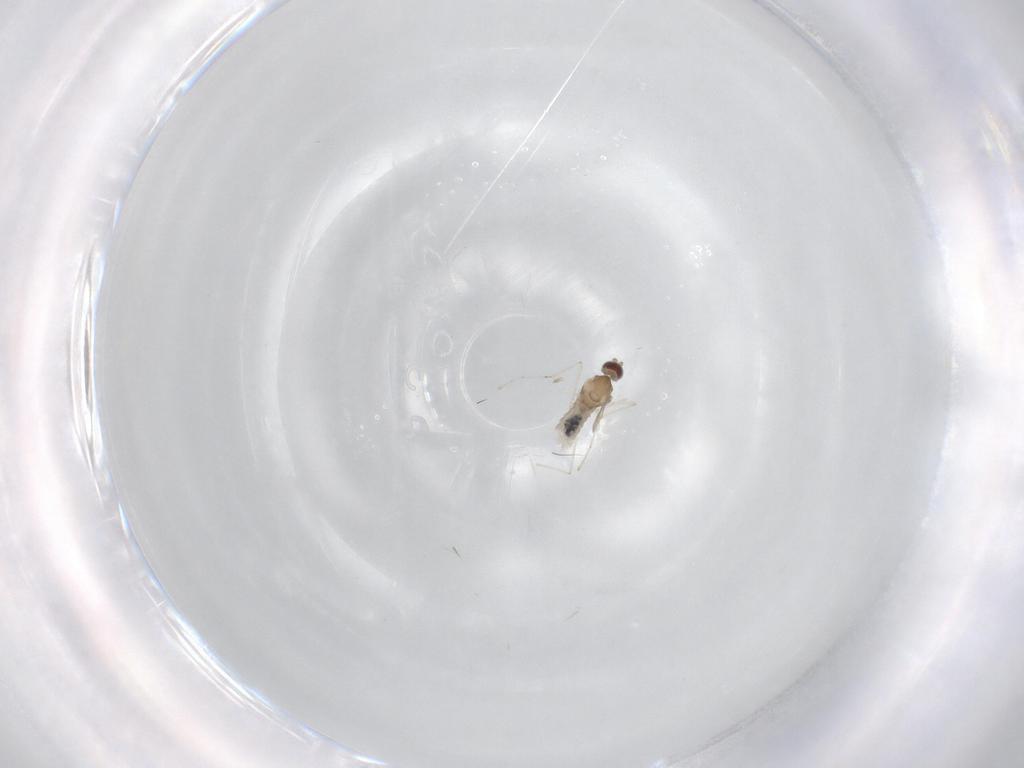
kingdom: Animalia
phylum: Arthropoda
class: Insecta
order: Diptera
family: Cecidomyiidae
